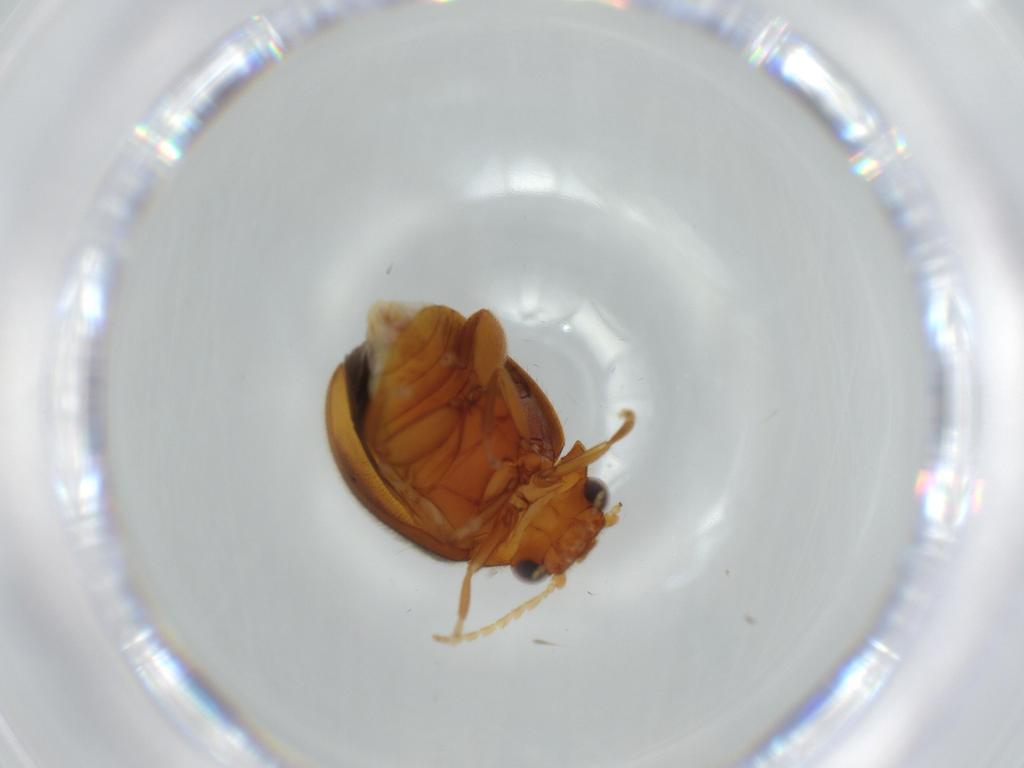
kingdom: Animalia
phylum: Arthropoda
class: Insecta
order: Coleoptera
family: Scirtidae
